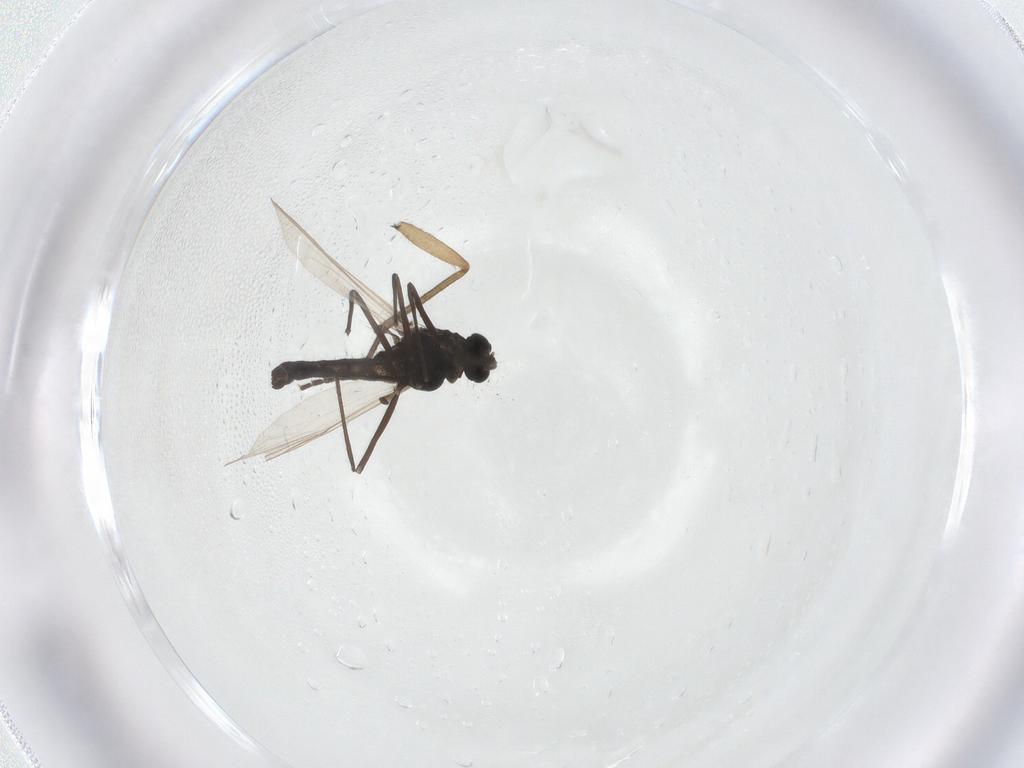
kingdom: Animalia
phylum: Arthropoda
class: Insecta
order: Diptera
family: Sciaridae
